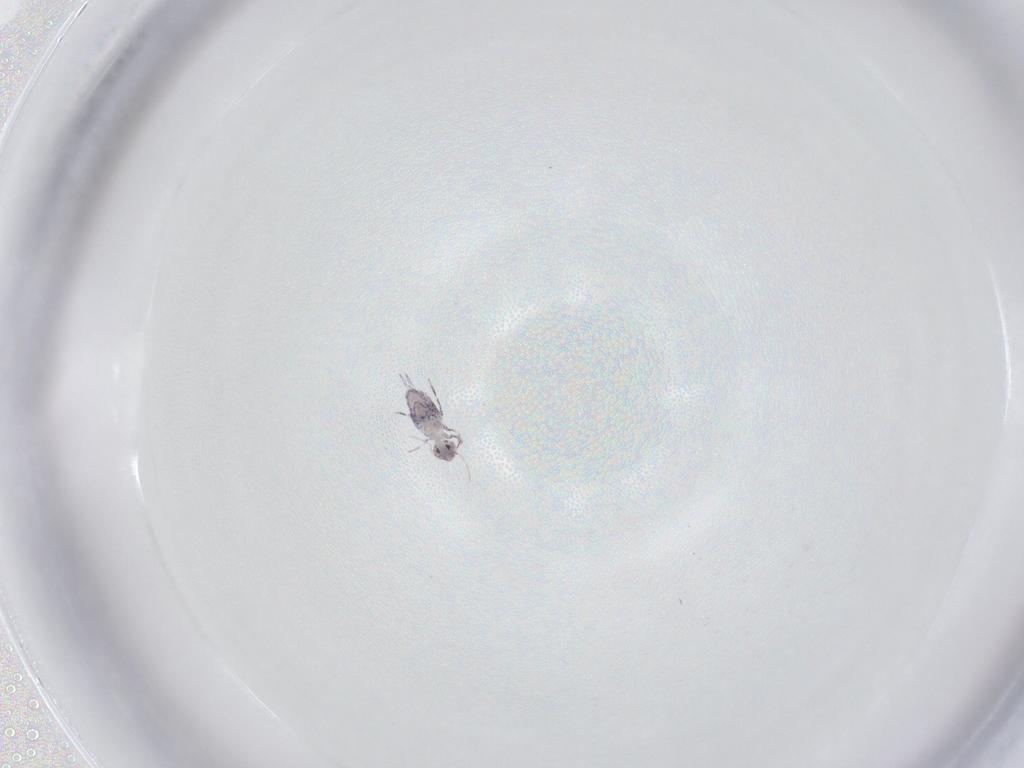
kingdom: Animalia
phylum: Arthropoda
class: Collembola
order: Symphypleona
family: Katiannidae
